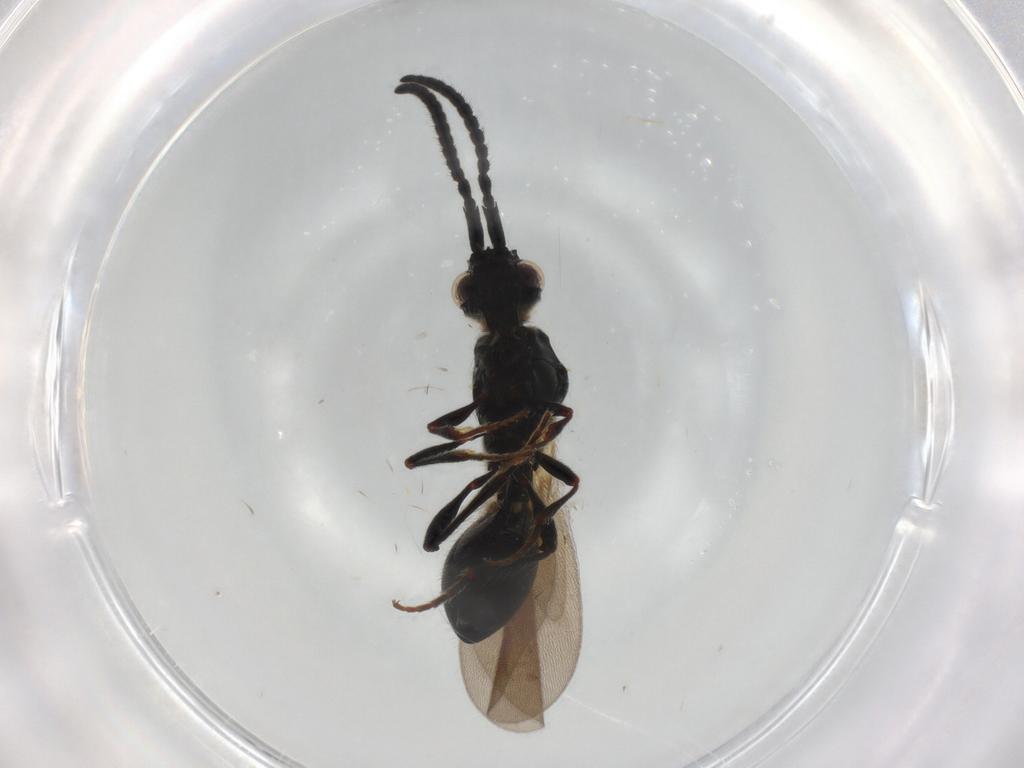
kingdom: Animalia
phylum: Arthropoda
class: Insecta
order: Hymenoptera
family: Diapriidae
